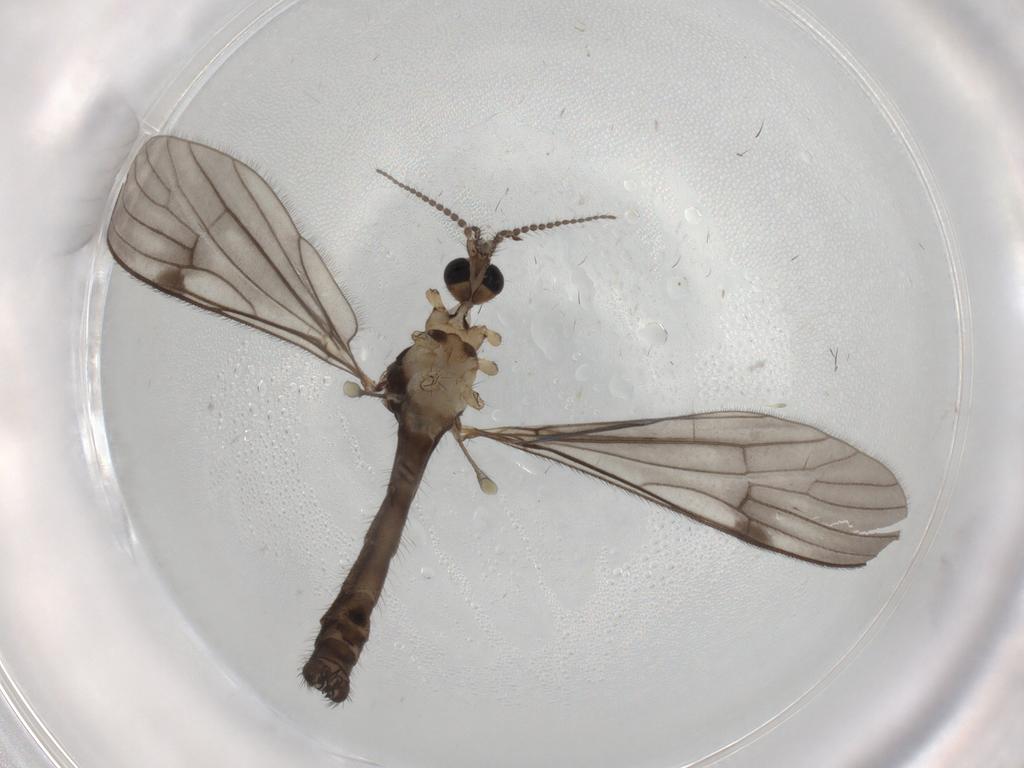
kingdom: Animalia
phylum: Arthropoda
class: Insecta
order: Diptera
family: Limoniidae
